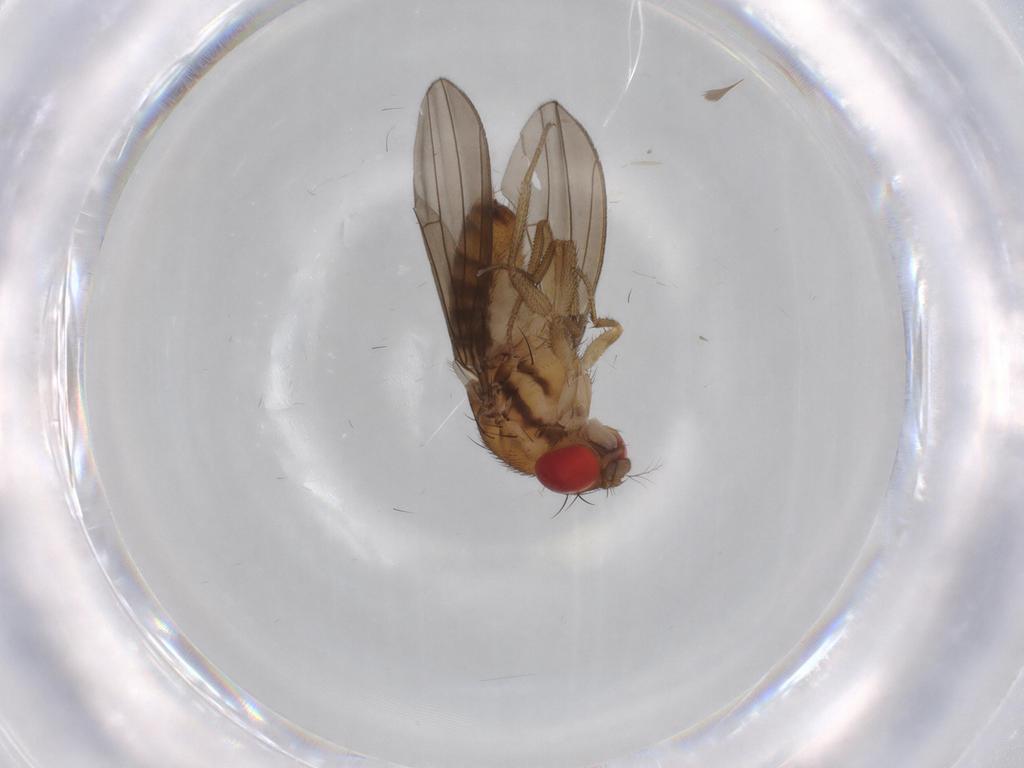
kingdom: Animalia
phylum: Arthropoda
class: Insecta
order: Diptera
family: Drosophilidae
